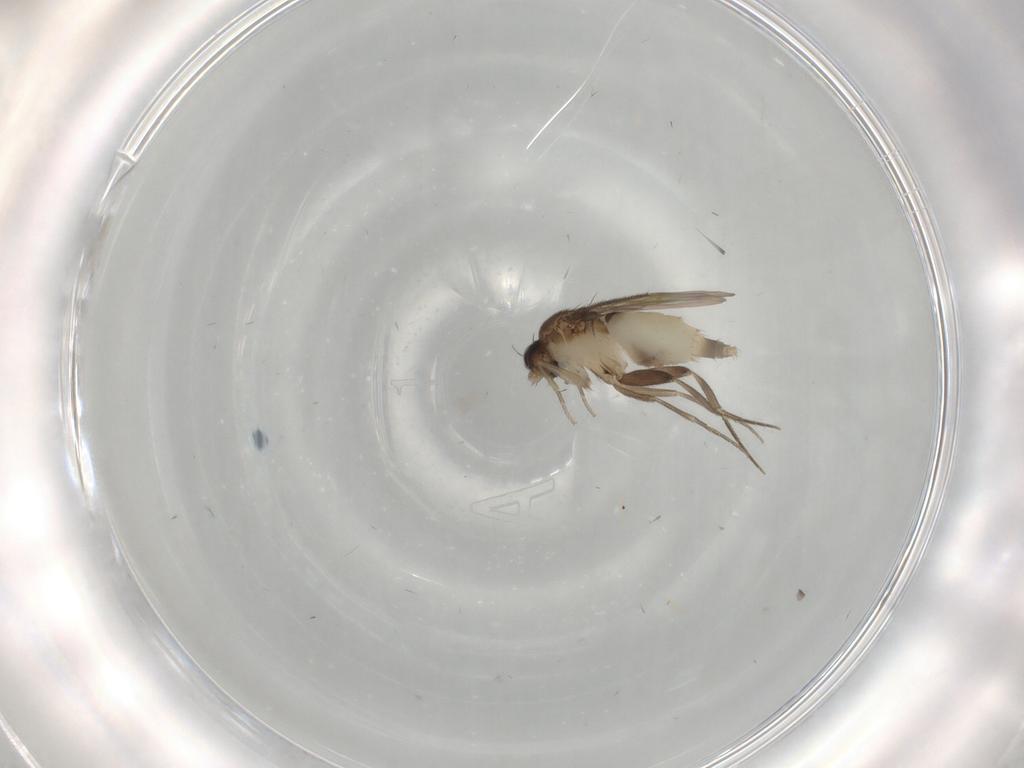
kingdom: Animalia
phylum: Arthropoda
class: Insecta
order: Diptera
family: Phoridae
